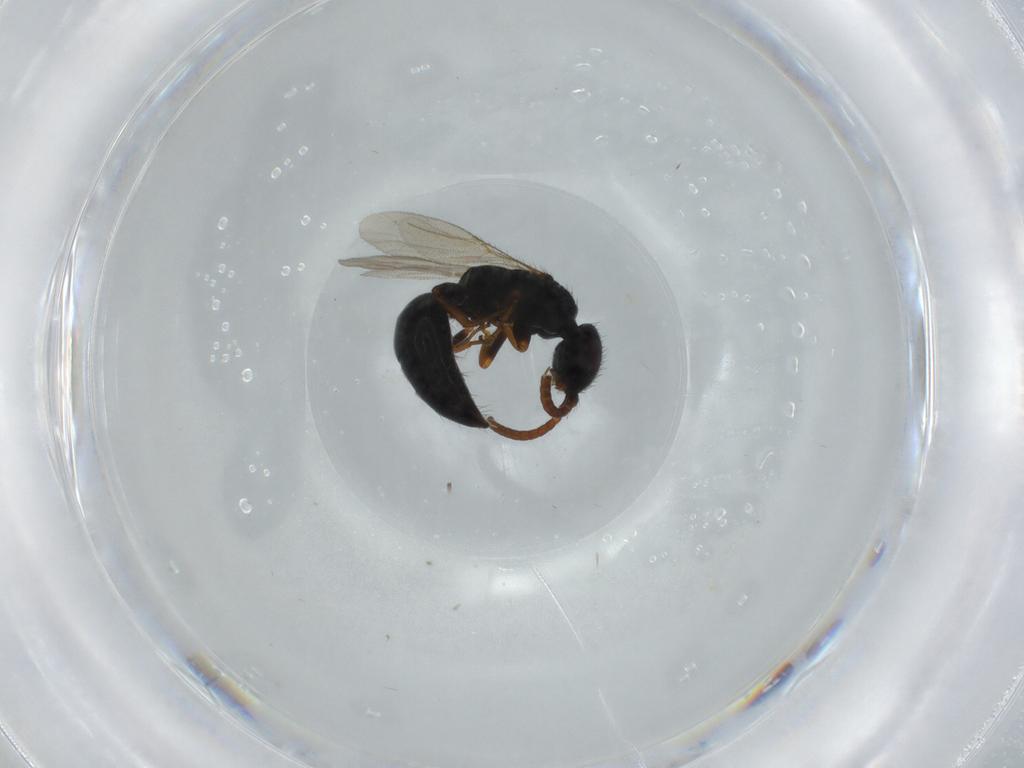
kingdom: Animalia
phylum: Arthropoda
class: Insecta
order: Hymenoptera
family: Bethylidae
